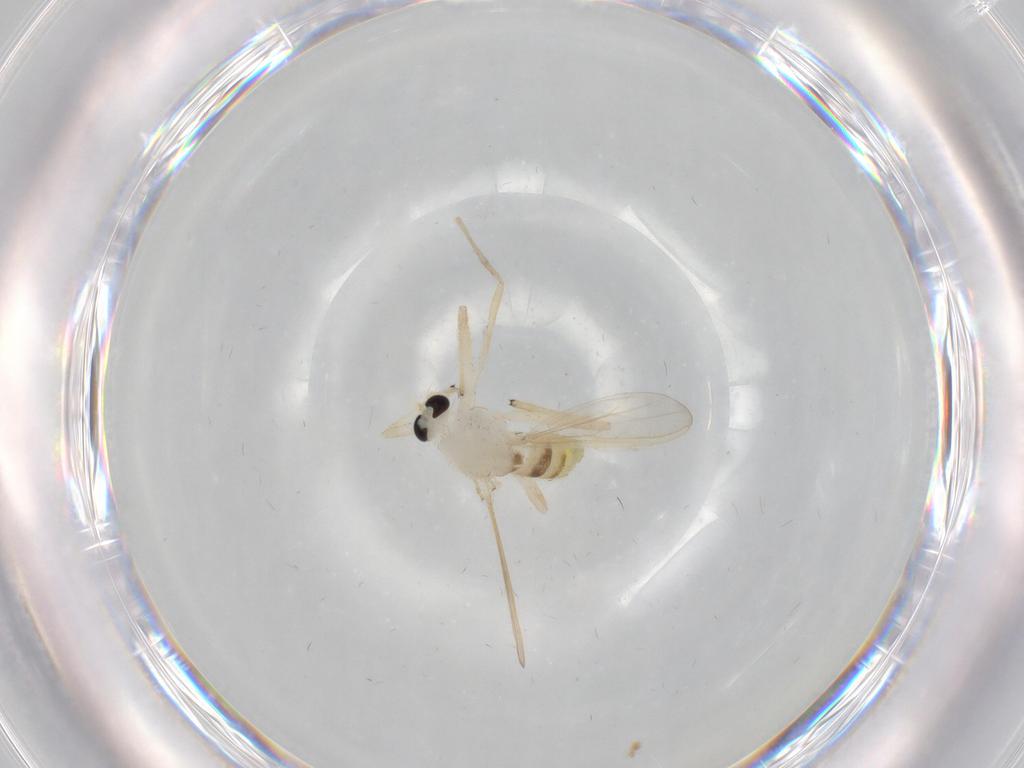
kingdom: Animalia
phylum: Arthropoda
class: Insecta
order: Diptera
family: Chironomidae
